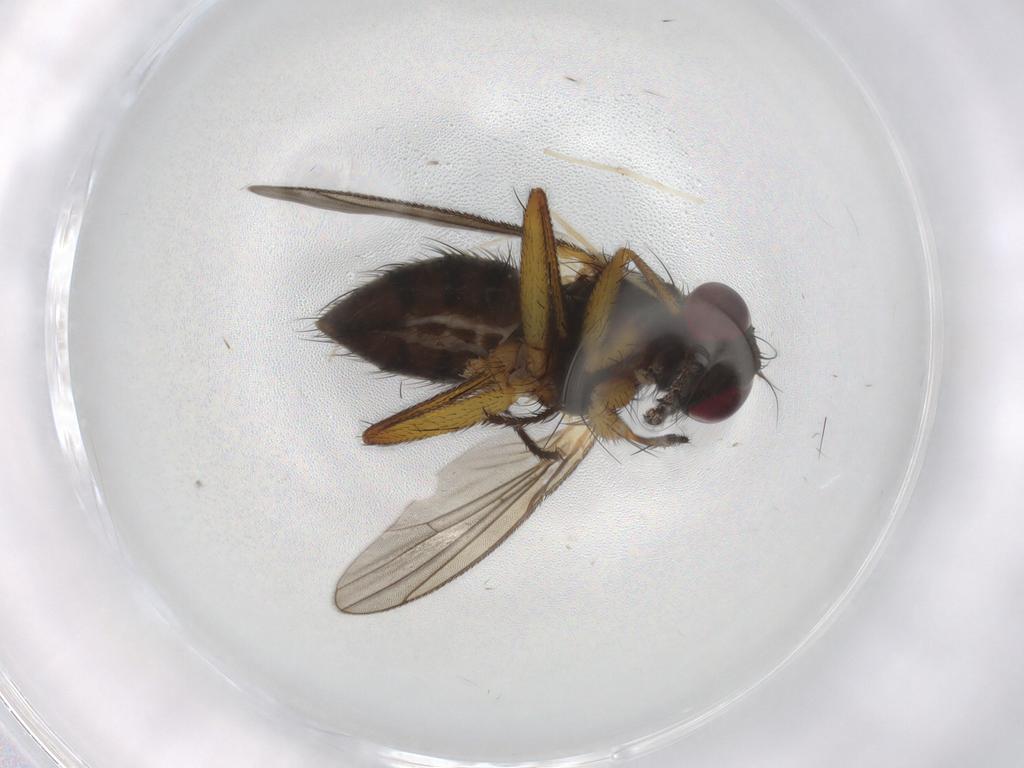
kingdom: Animalia
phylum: Arthropoda
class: Insecta
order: Diptera
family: Muscidae
